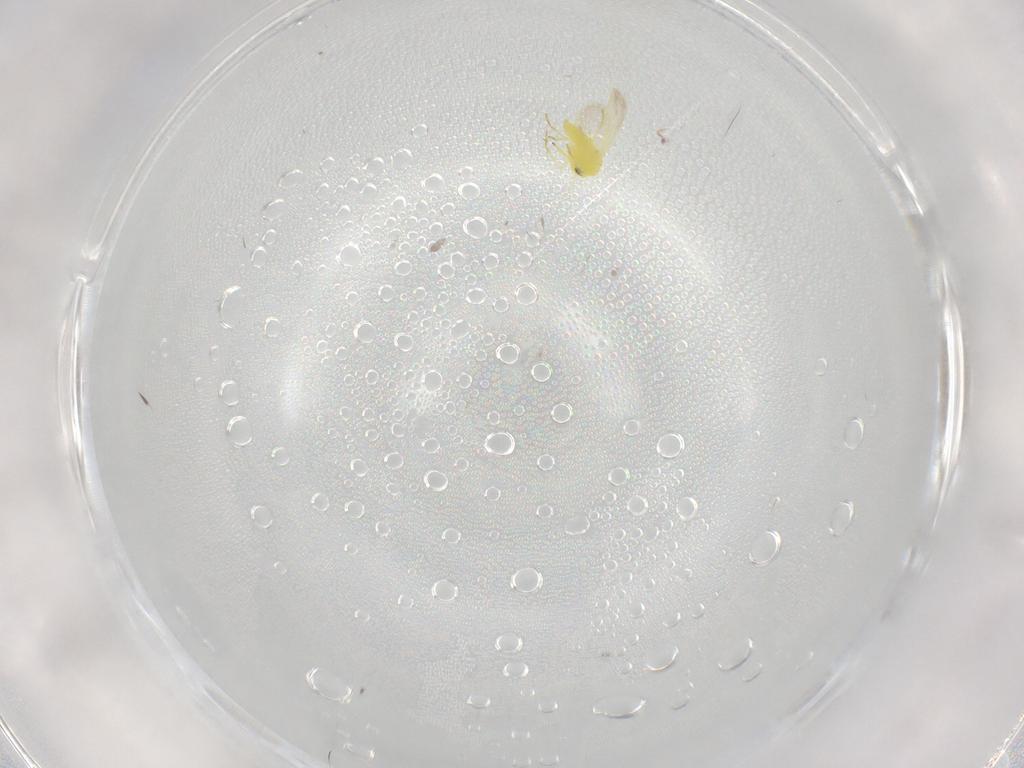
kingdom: Animalia
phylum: Arthropoda
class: Insecta
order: Hemiptera
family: Aleyrodidae
